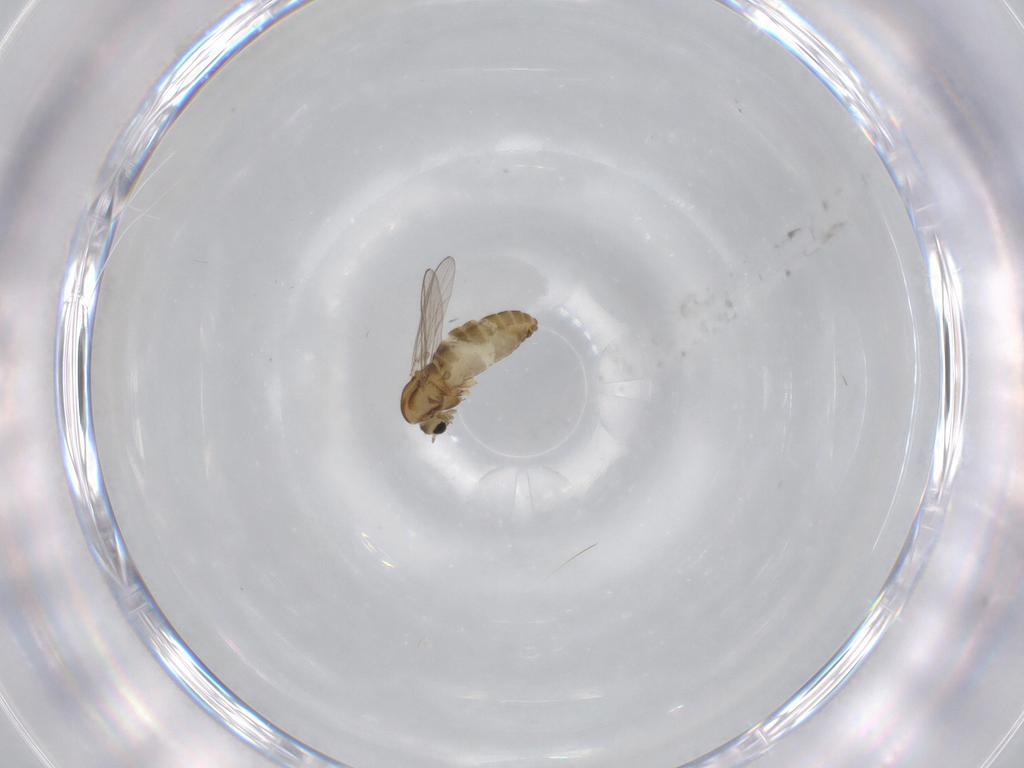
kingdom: Animalia
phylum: Arthropoda
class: Insecta
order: Diptera
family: Chironomidae
